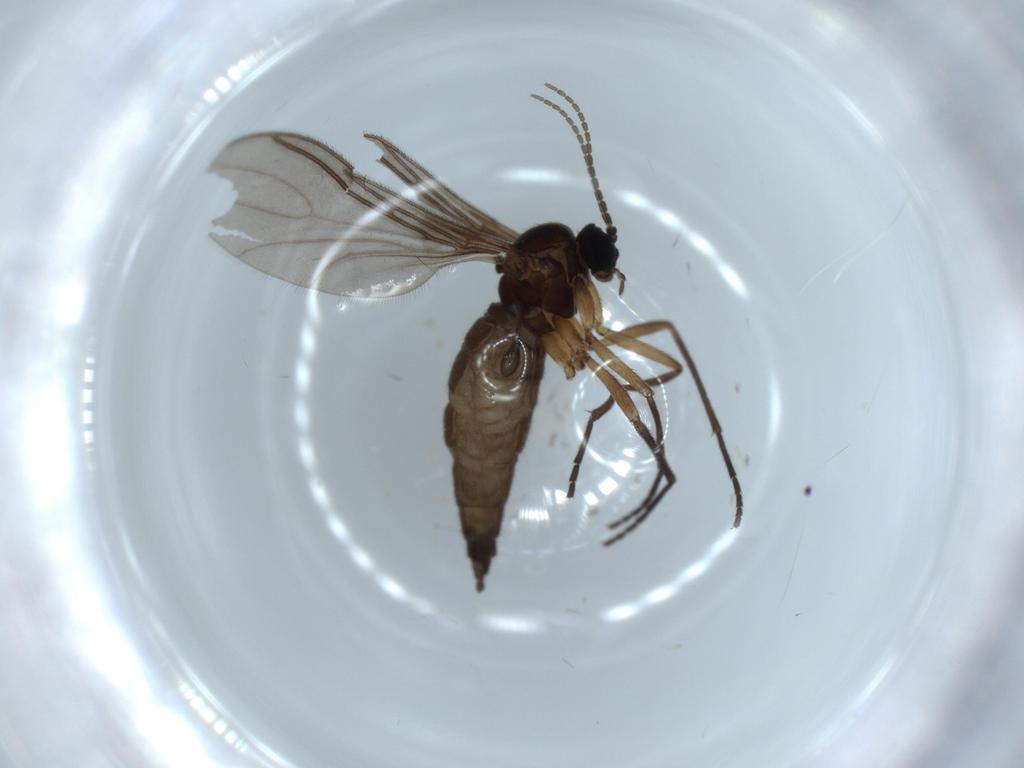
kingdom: Animalia
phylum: Arthropoda
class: Insecta
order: Diptera
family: Sciaridae
